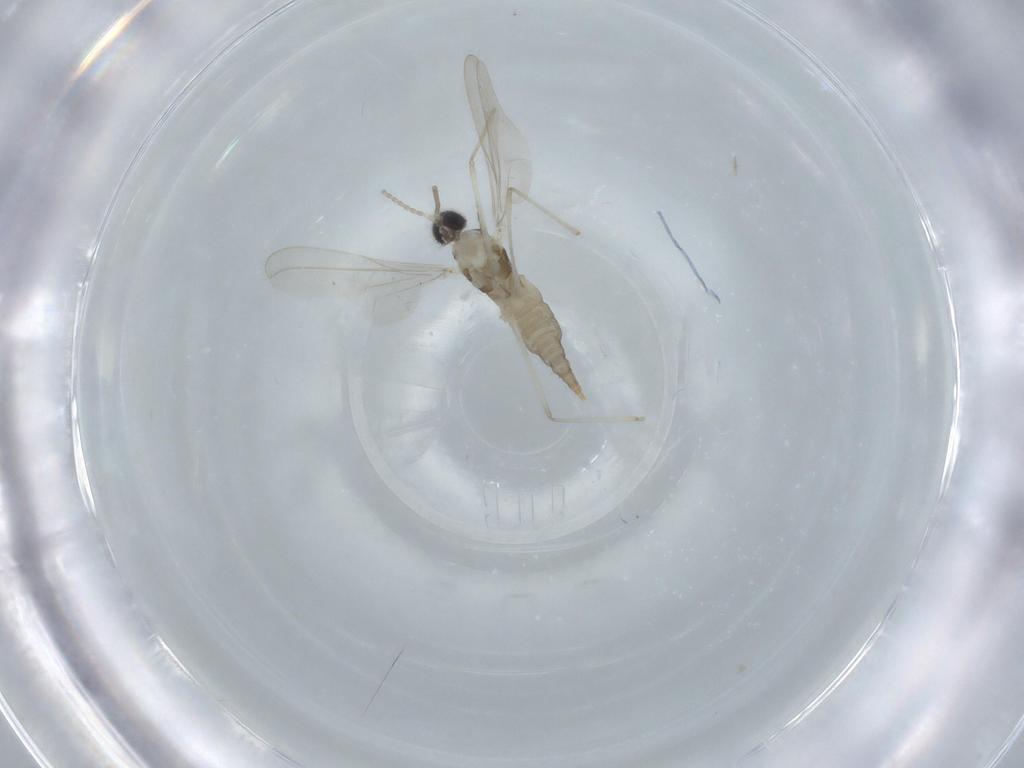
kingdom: Animalia
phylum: Arthropoda
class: Insecta
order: Diptera
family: Cecidomyiidae
